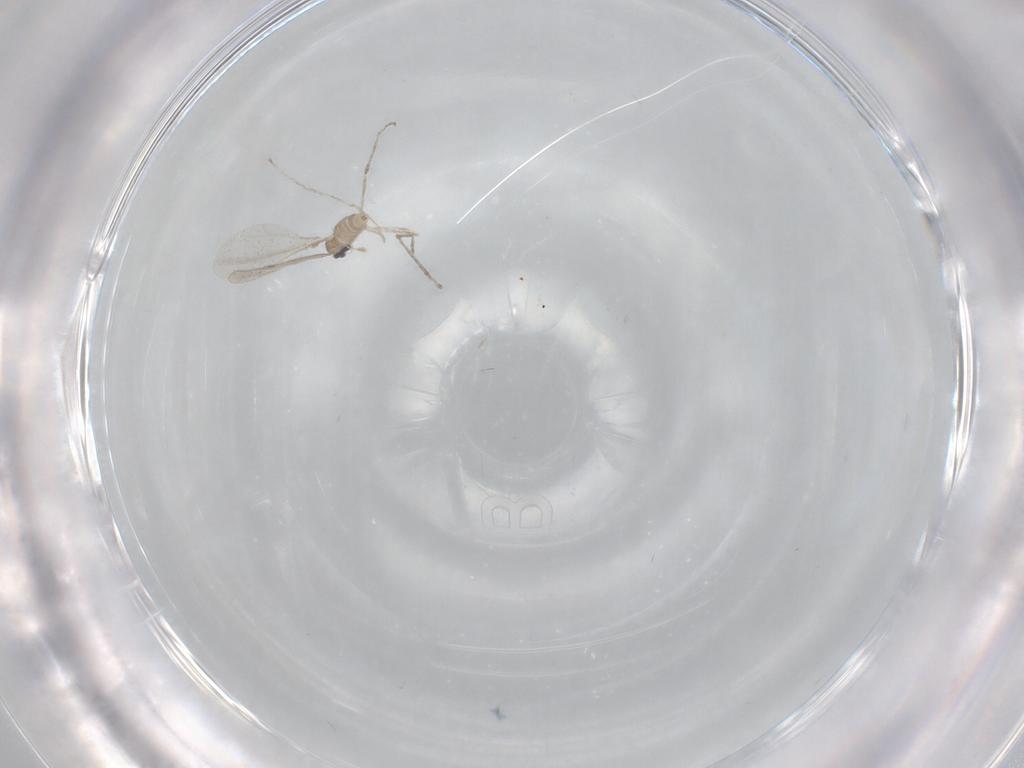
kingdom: Animalia
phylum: Arthropoda
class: Insecta
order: Diptera
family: Cecidomyiidae
